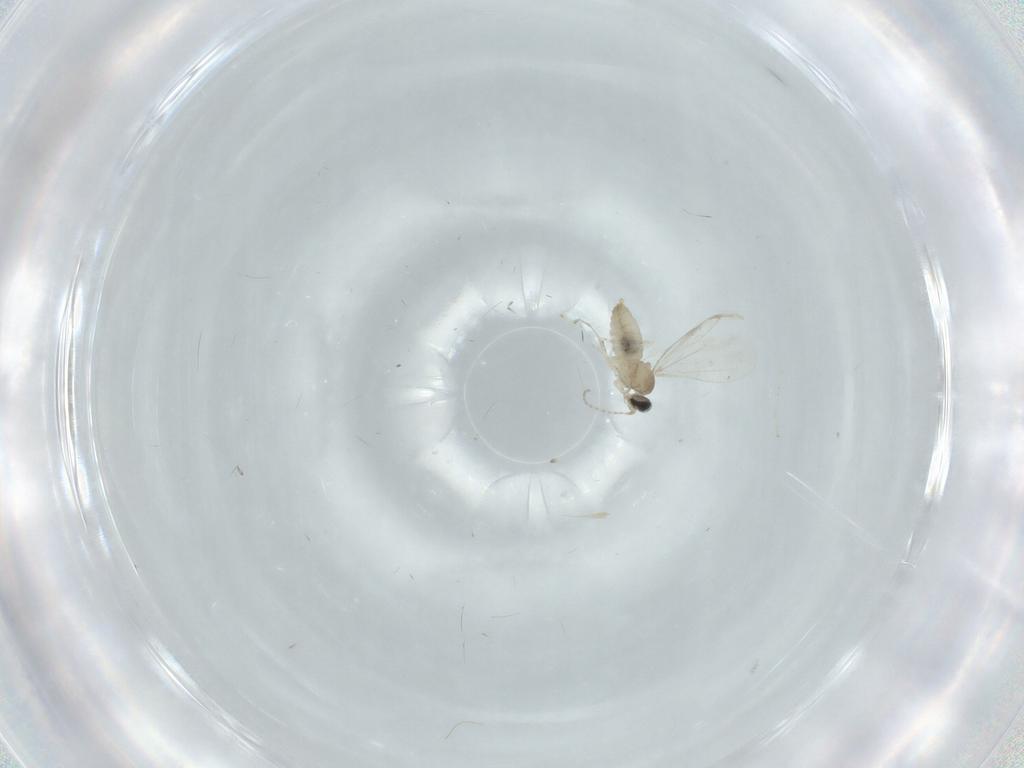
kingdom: Animalia
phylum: Arthropoda
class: Insecta
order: Diptera
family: Cecidomyiidae
